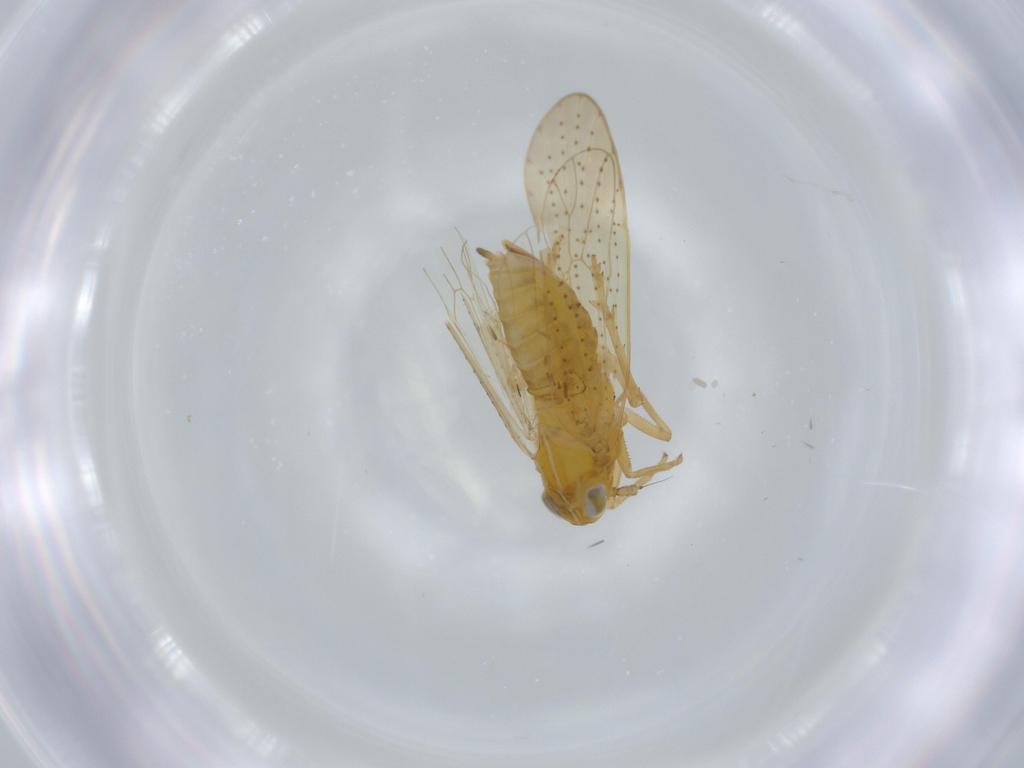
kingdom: Animalia
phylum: Arthropoda
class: Insecta
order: Hemiptera
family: Delphacidae
